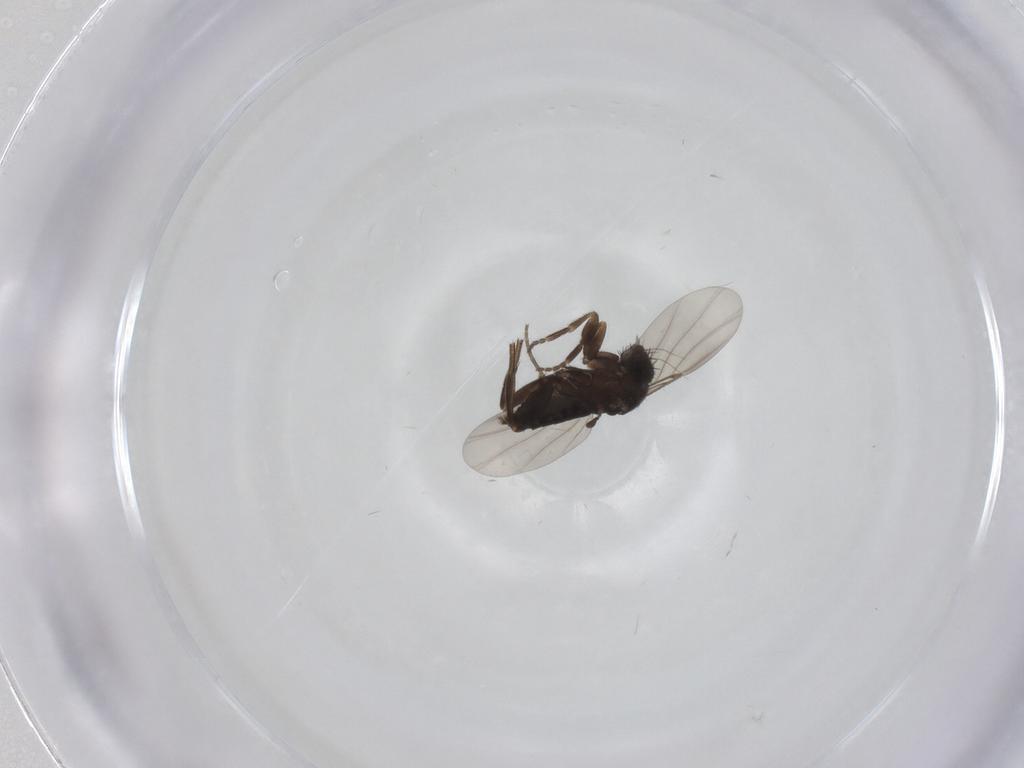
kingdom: Animalia
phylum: Arthropoda
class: Insecta
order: Diptera
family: Phoridae
